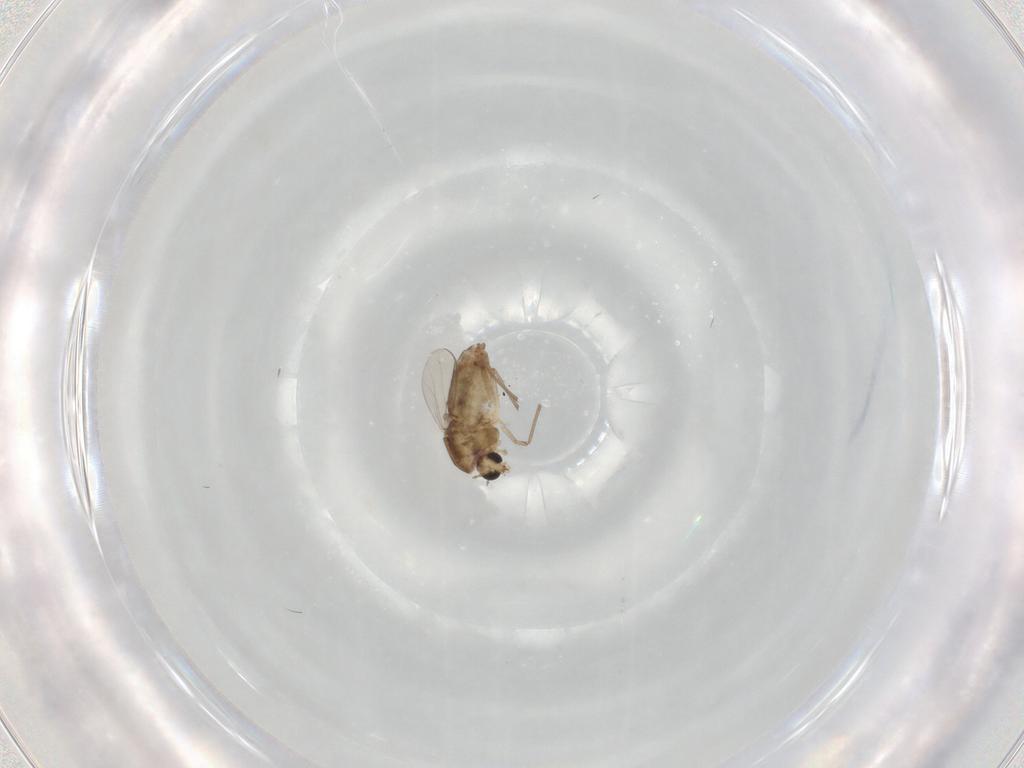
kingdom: Animalia
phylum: Arthropoda
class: Insecta
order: Diptera
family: Chironomidae
